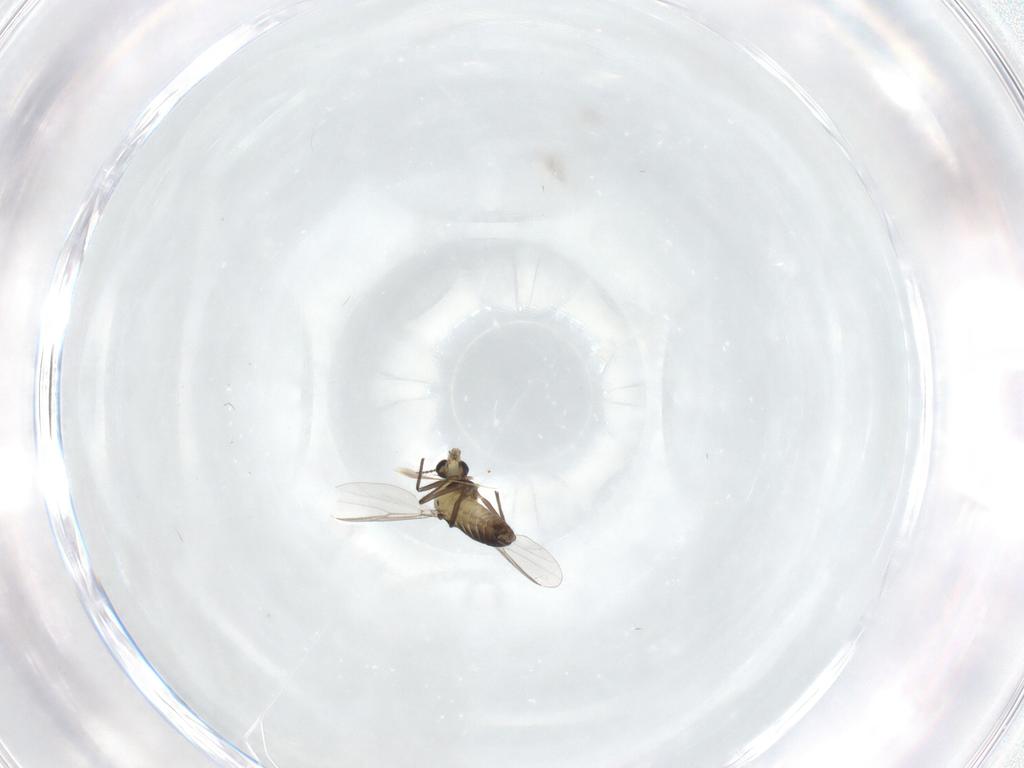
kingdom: Animalia
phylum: Arthropoda
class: Insecta
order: Diptera
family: Chironomidae
